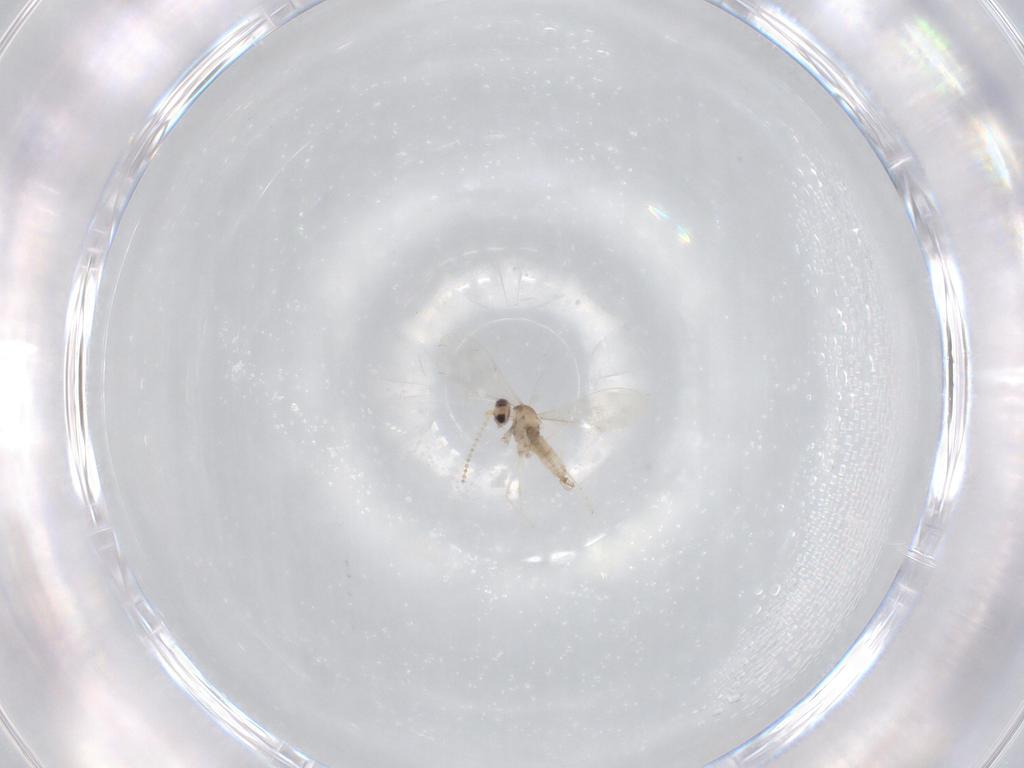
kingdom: Animalia
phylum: Arthropoda
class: Insecta
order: Diptera
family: Cecidomyiidae
